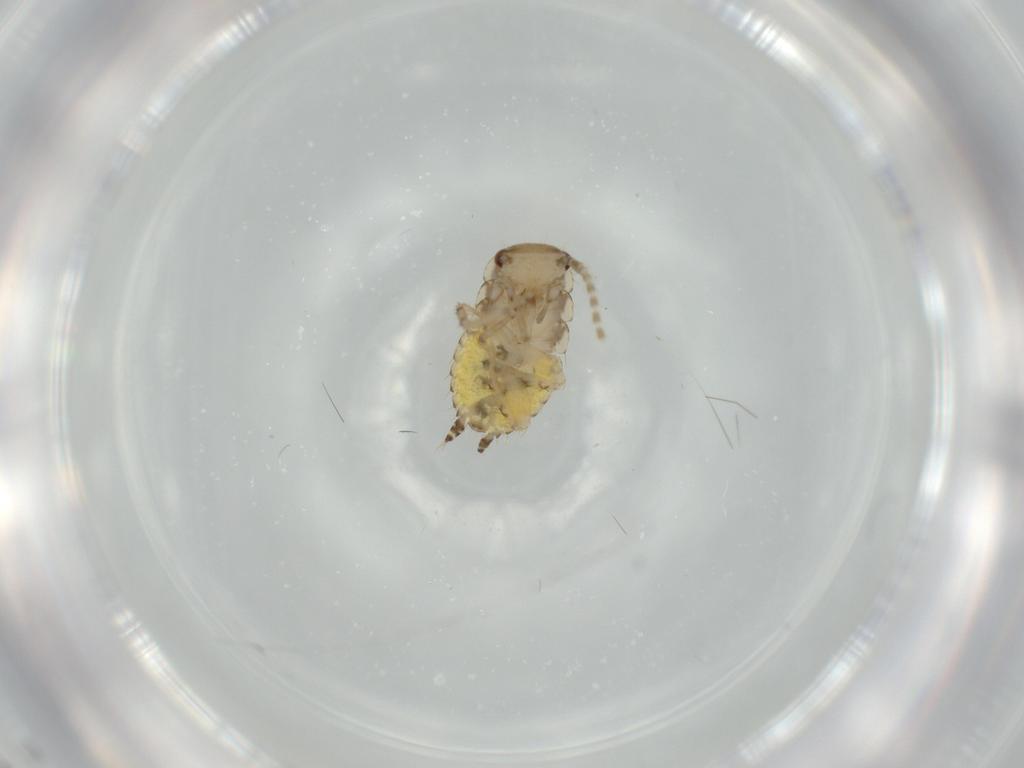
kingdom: Animalia
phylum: Arthropoda
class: Insecta
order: Blattodea
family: Ectobiidae
